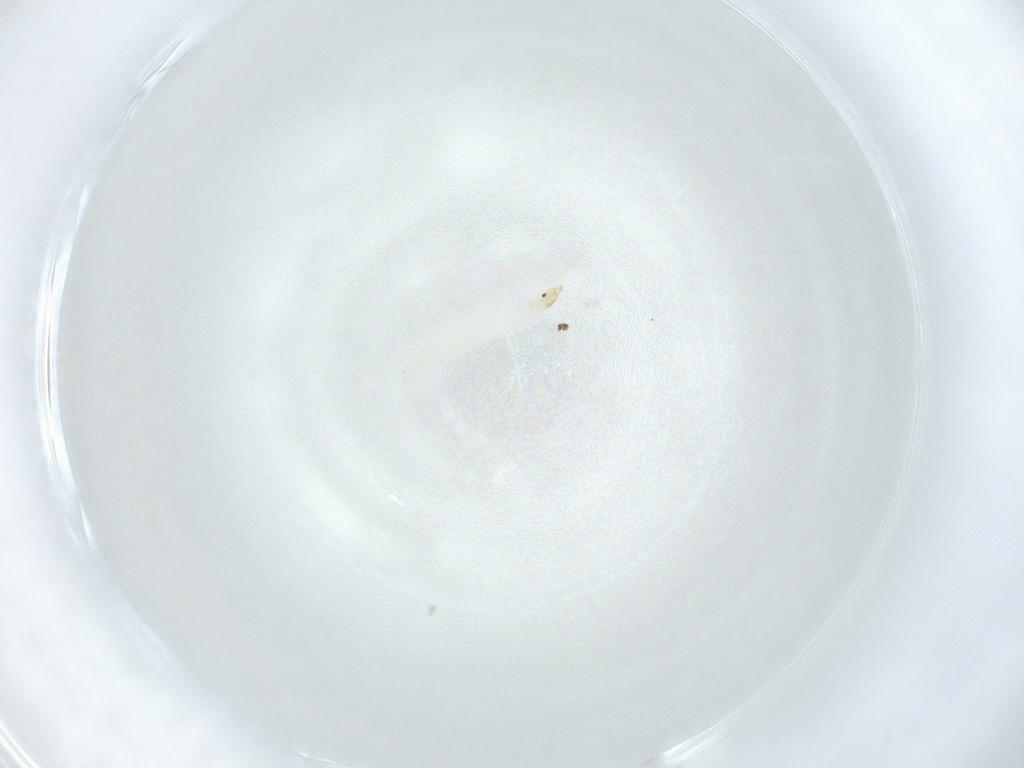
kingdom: Animalia
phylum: Arthropoda
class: Insecta
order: Diptera
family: Stratiomyidae
